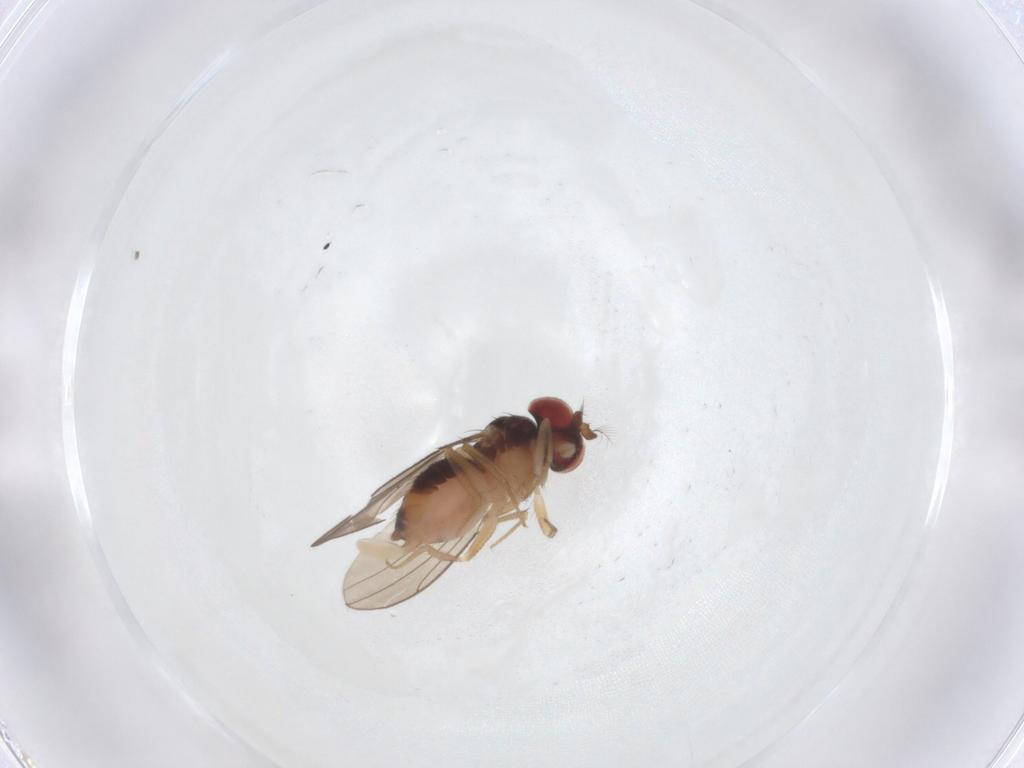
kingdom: Animalia
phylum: Arthropoda
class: Insecta
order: Diptera
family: Drosophilidae
